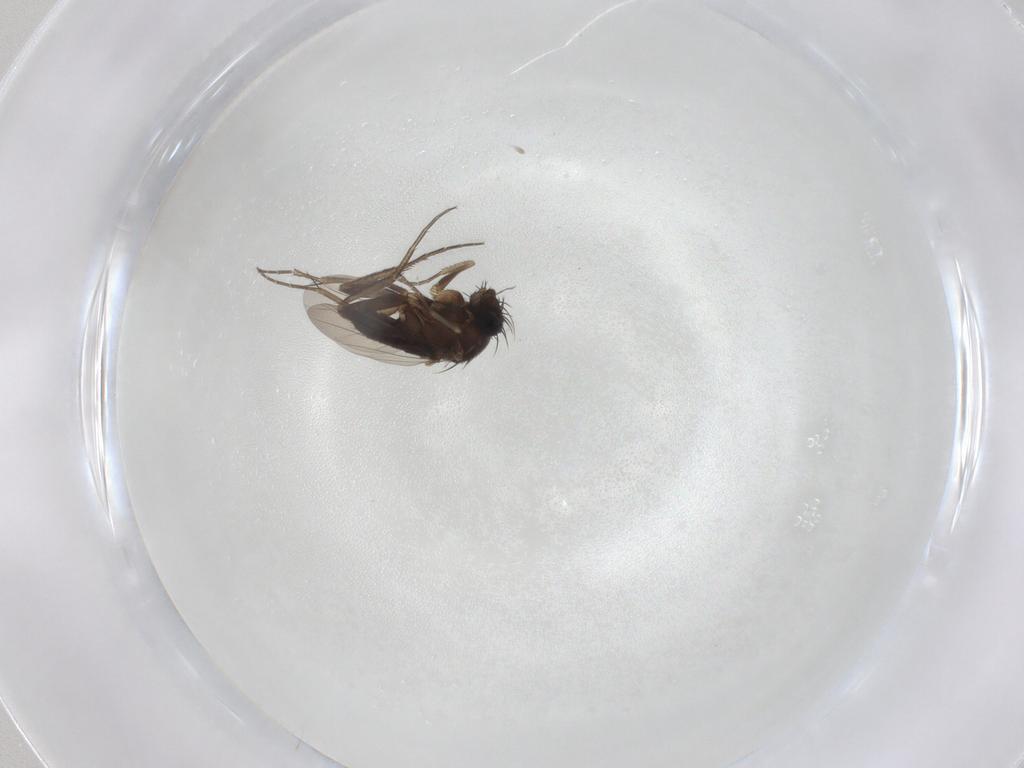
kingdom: Animalia
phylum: Arthropoda
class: Insecta
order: Diptera
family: Phoridae
